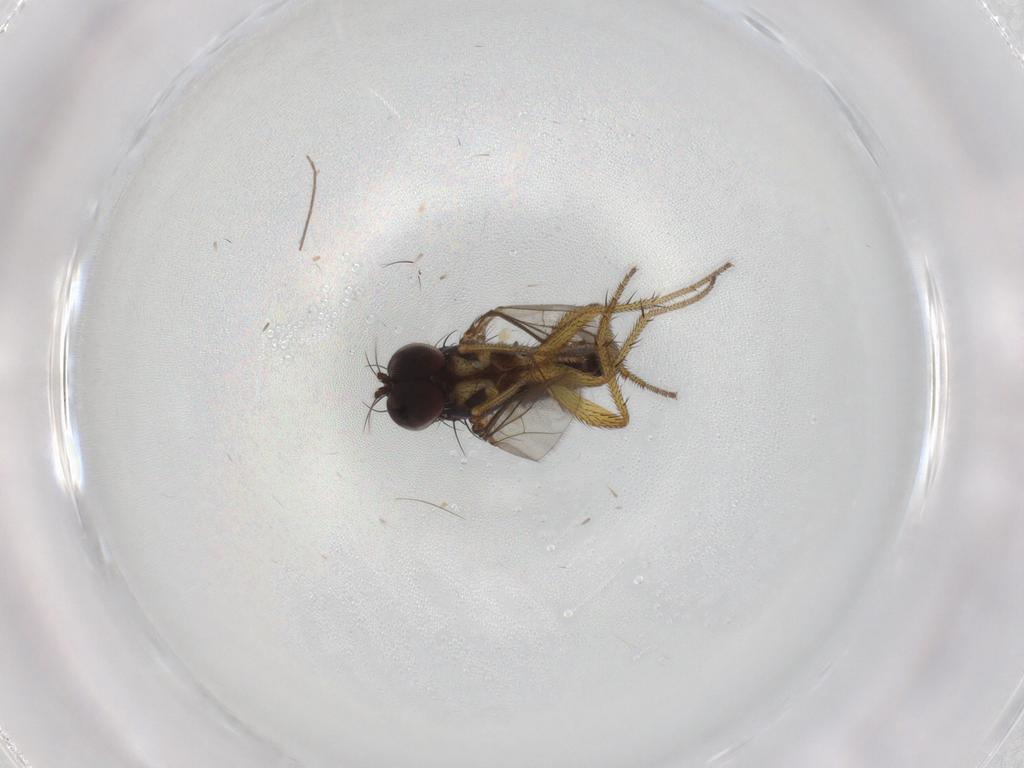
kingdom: Animalia
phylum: Arthropoda
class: Insecta
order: Diptera
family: Dolichopodidae
